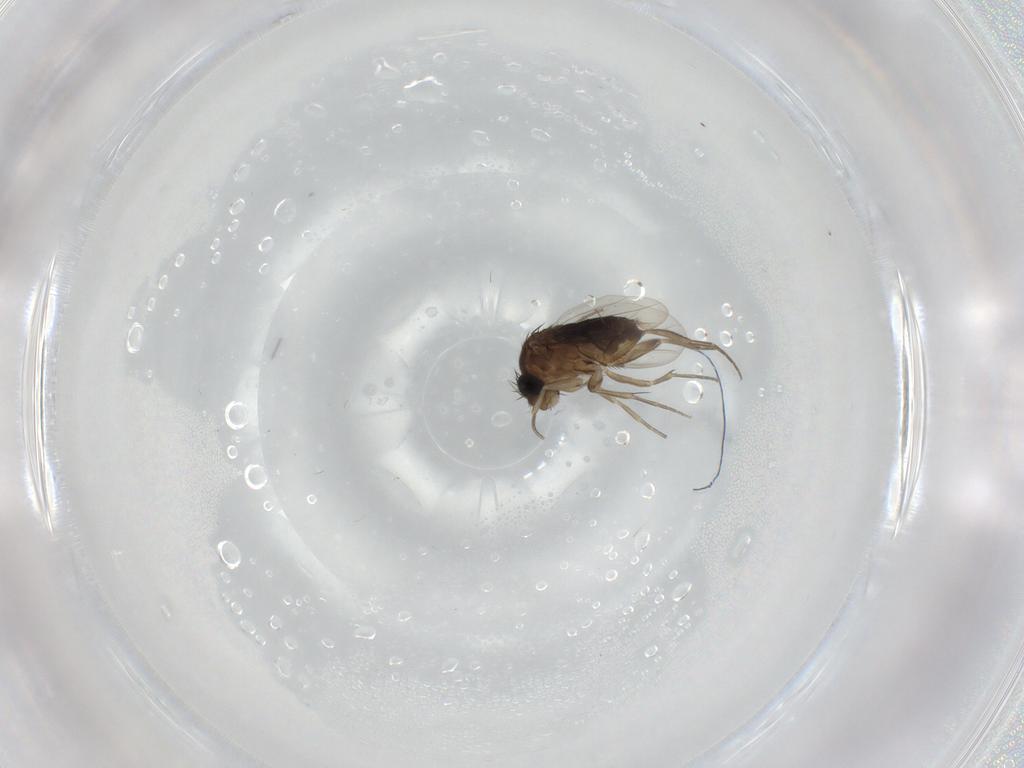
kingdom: Animalia
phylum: Arthropoda
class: Insecta
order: Diptera
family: Phoridae
